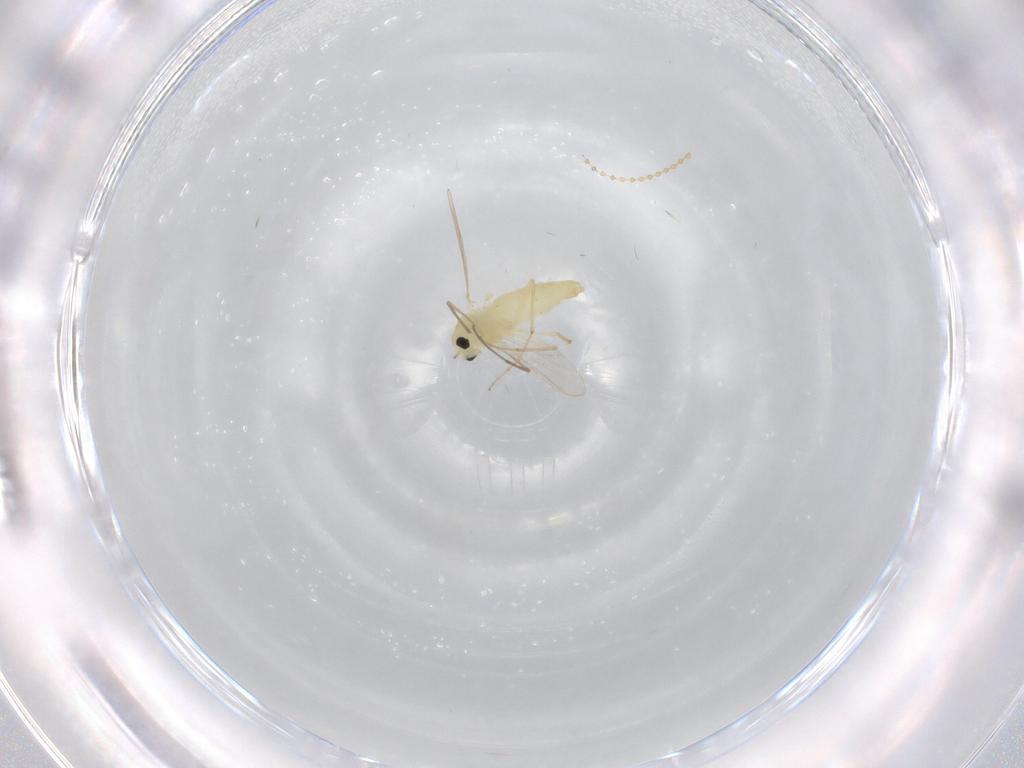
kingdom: Animalia
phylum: Arthropoda
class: Insecta
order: Diptera
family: Chironomidae
